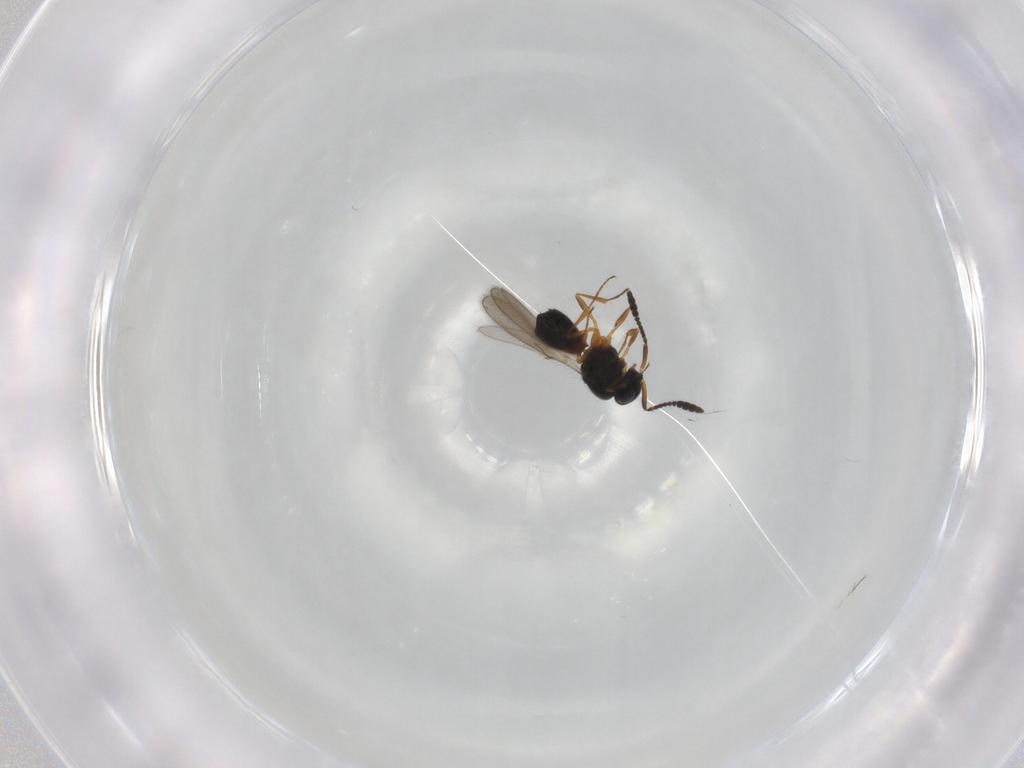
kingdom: Animalia
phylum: Arthropoda
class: Insecta
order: Hymenoptera
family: Scelionidae
